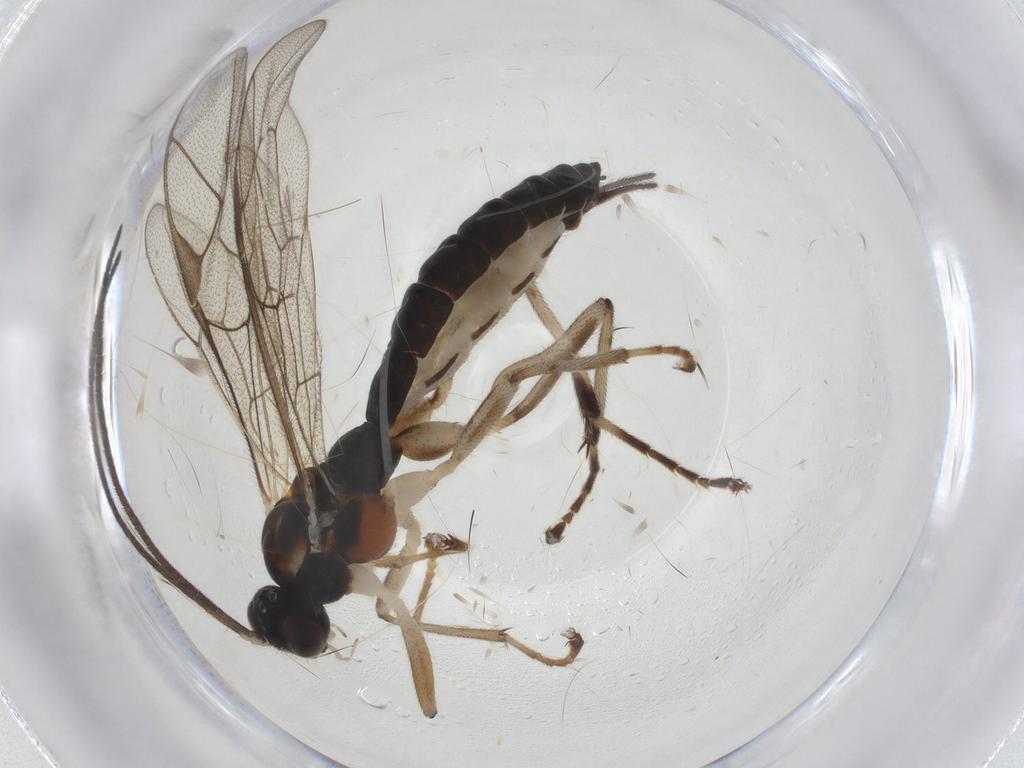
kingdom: Animalia
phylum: Arthropoda
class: Insecta
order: Hymenoptera
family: Ichneumonidae
